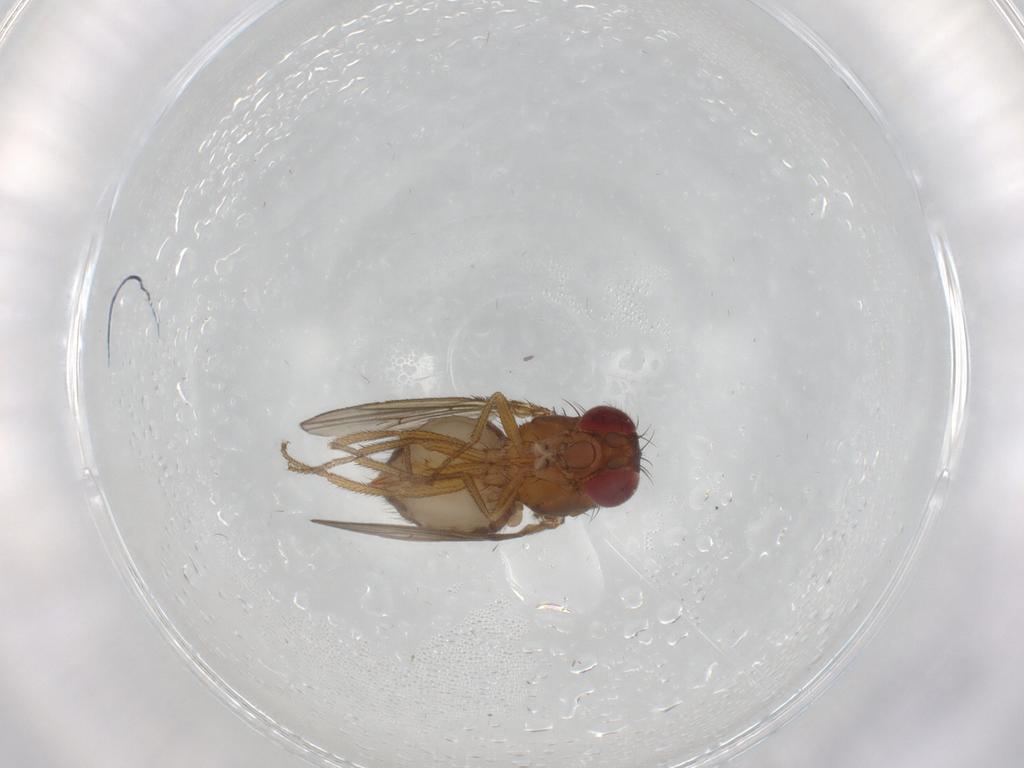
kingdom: Animalia
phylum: Arthropoda
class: Insecta
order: Diptera
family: Drosophilidae
